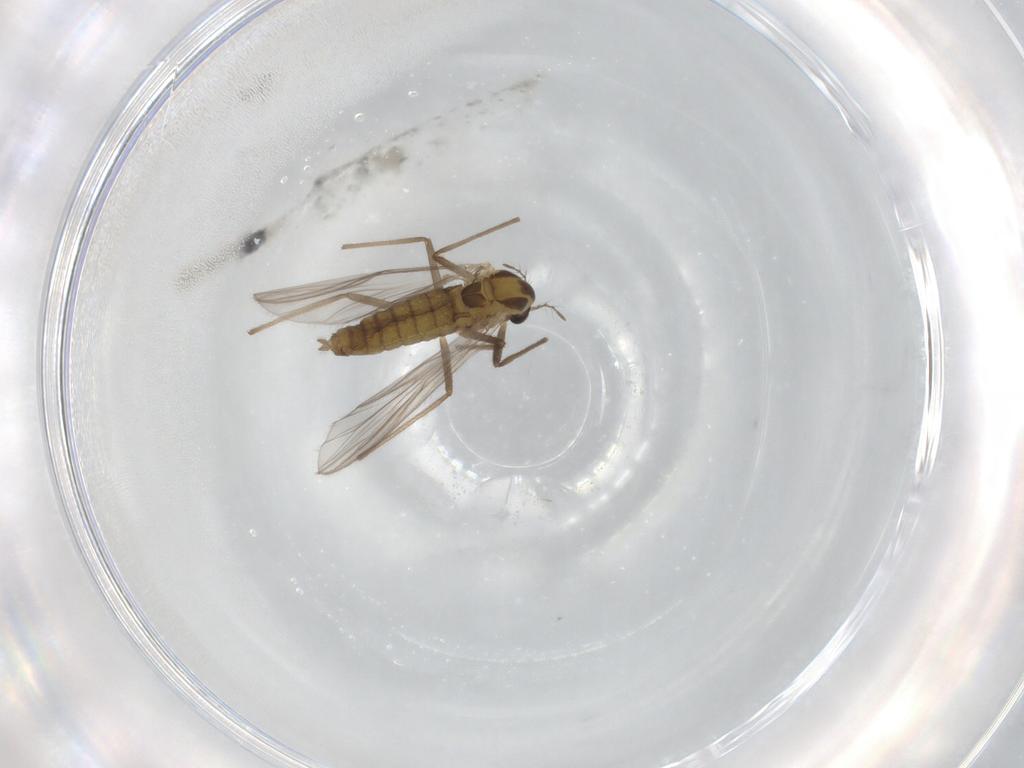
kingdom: Animalia
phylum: Arthropoda
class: Insecta
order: Diptera
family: Chironomidae
